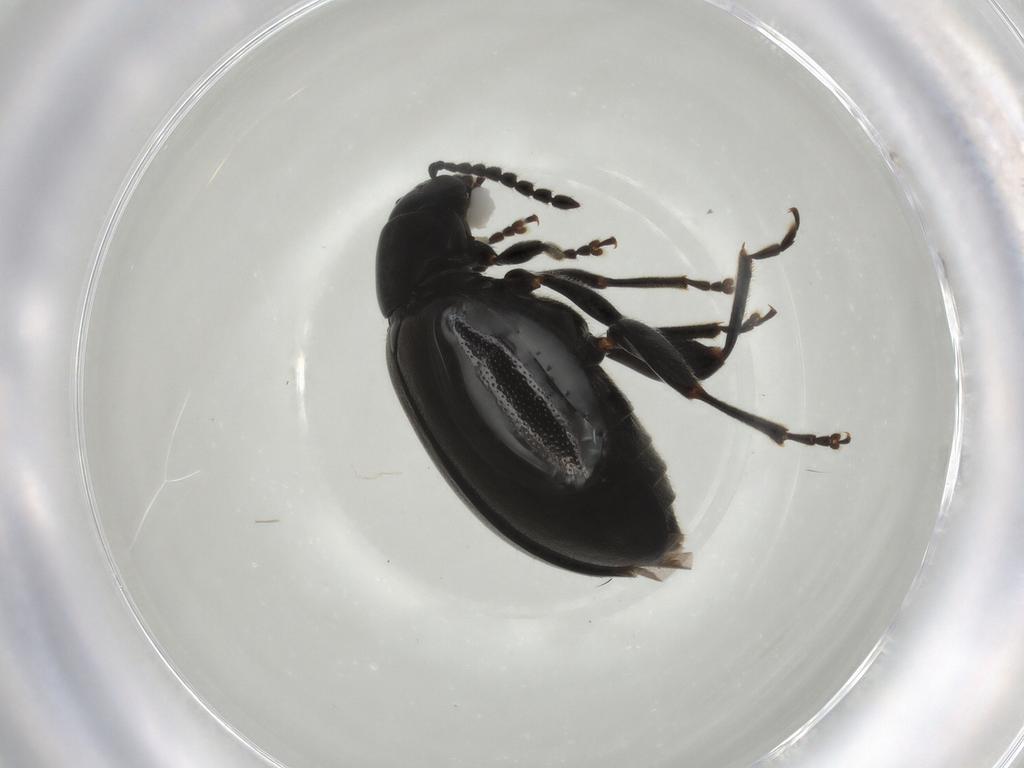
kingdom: Animalia
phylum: Arthropoda
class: Insecta
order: Coleoptera
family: Chrysomelidae
